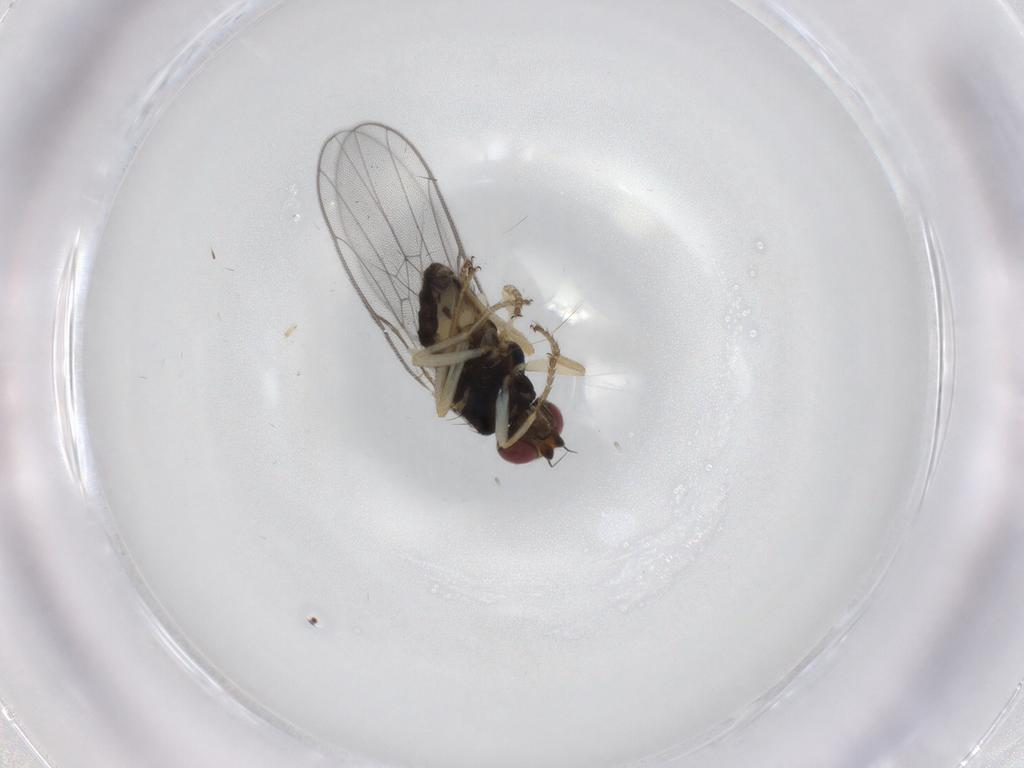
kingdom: Animalia
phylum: Arthropoda
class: Insecta
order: Diptera
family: Chloropidae
